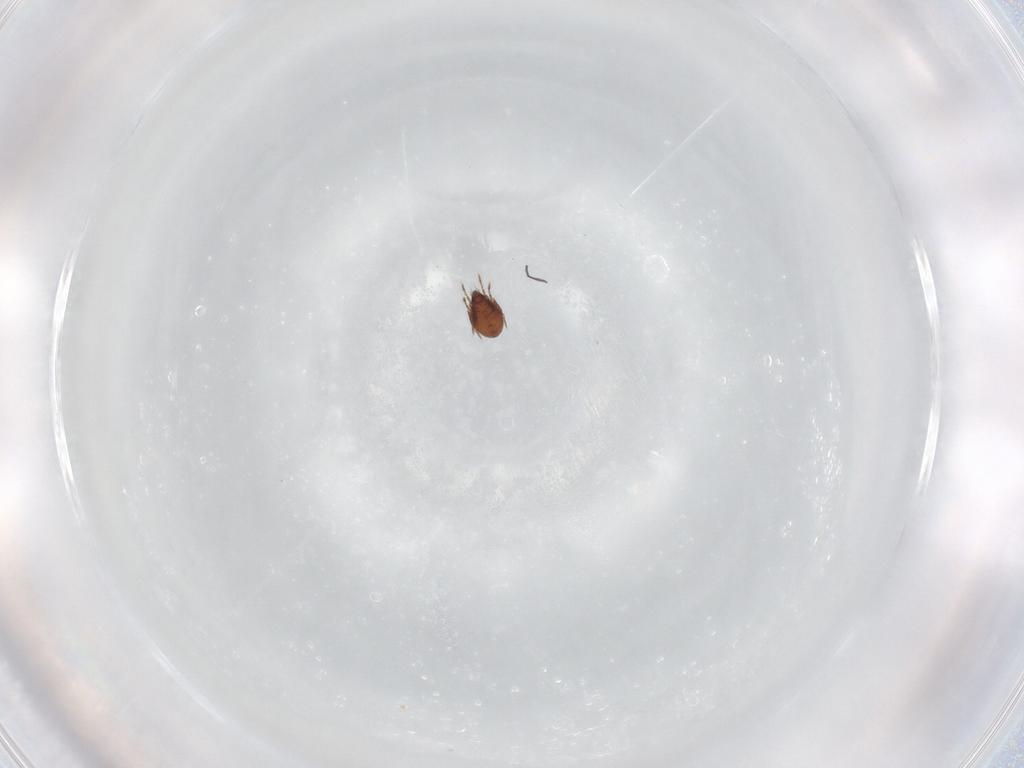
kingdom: Animalia
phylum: Arthropoda
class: Arachnida
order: Sarcoptiformes
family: Ceratozetidae
